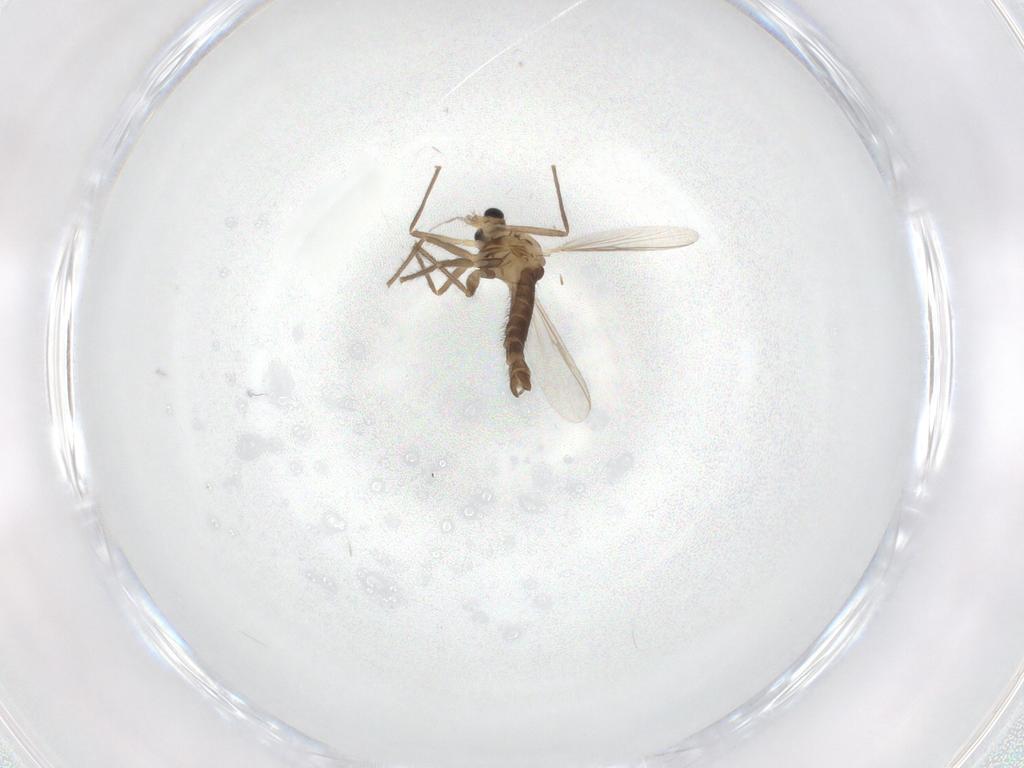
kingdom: Animalia
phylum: Arthropoda
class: Insecta
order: Diptera
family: Chironomidae
